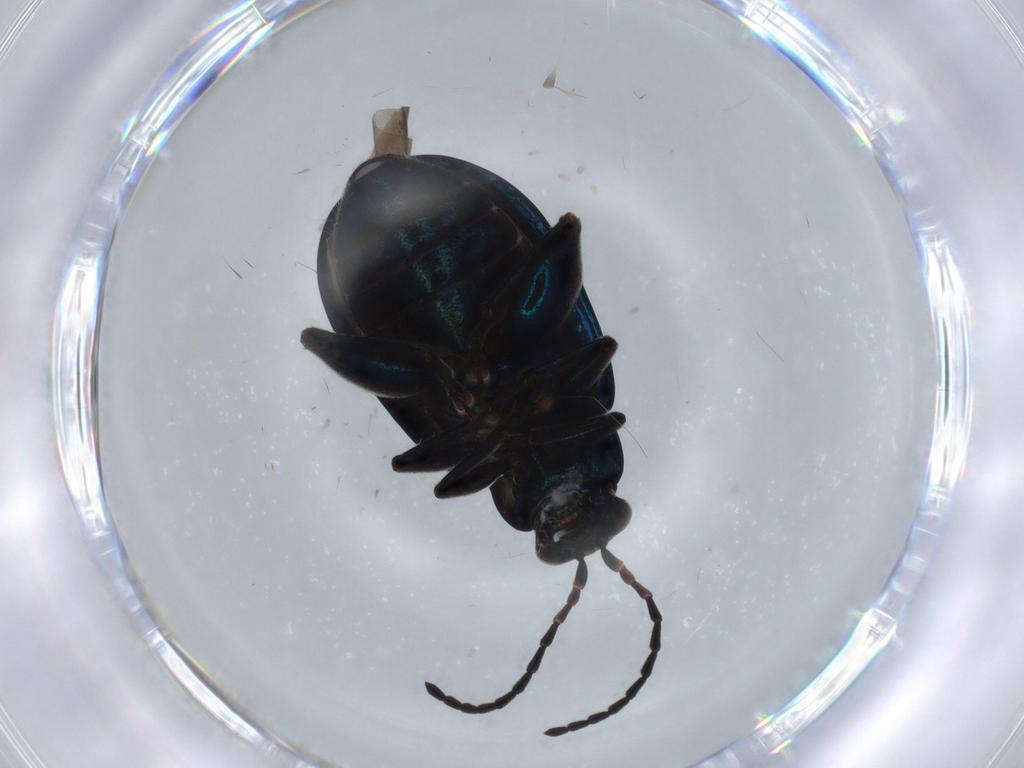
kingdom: Animalia
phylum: Arthropoda
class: Insecta
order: Coleoptera
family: Chrysomelidae
